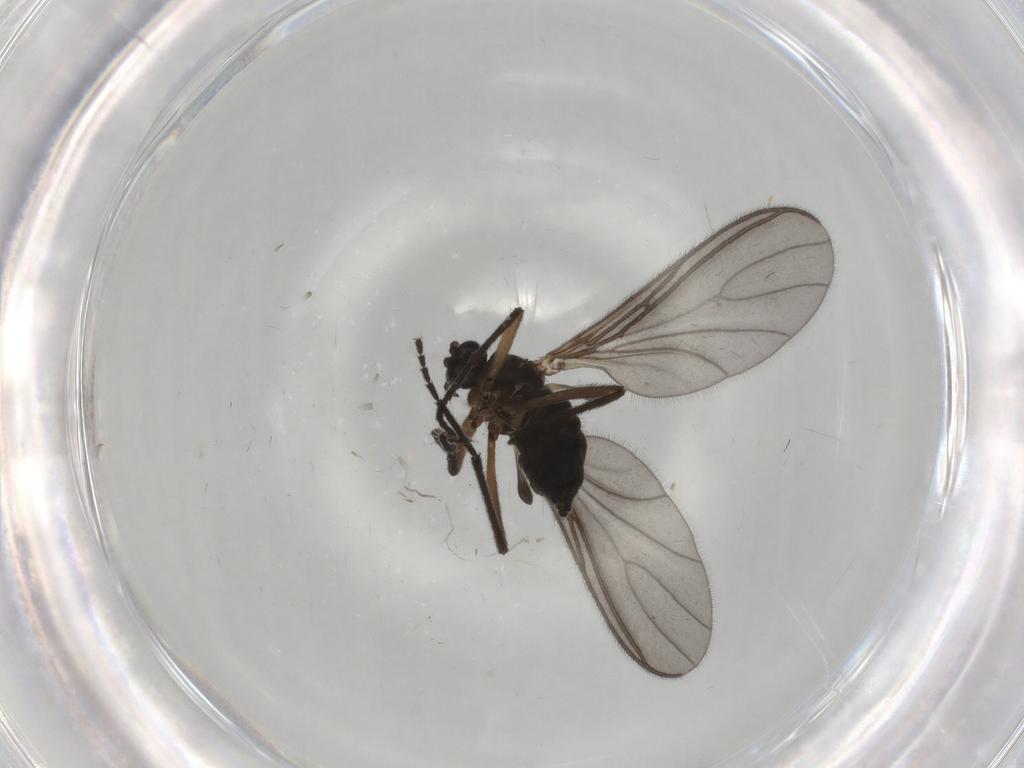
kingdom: Animalia
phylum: Arthropoda
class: Insecta
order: Diptera
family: Sciaridae
